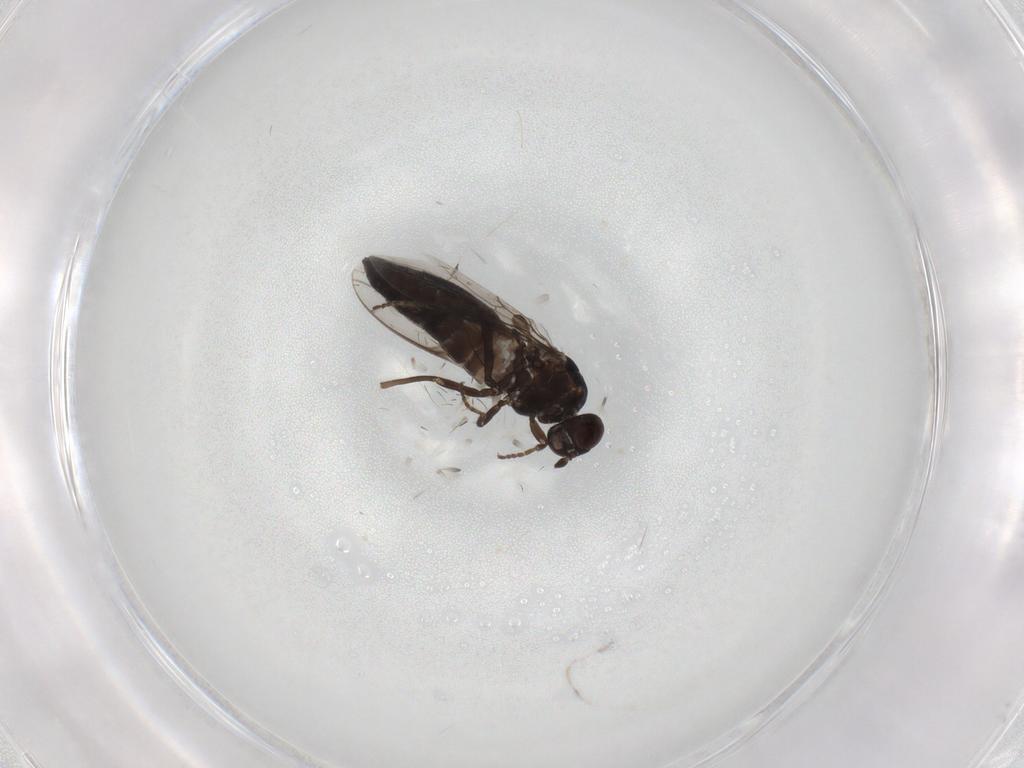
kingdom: Animalia
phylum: Arthropoda
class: Insecta
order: Diptera
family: Scenopinidae
